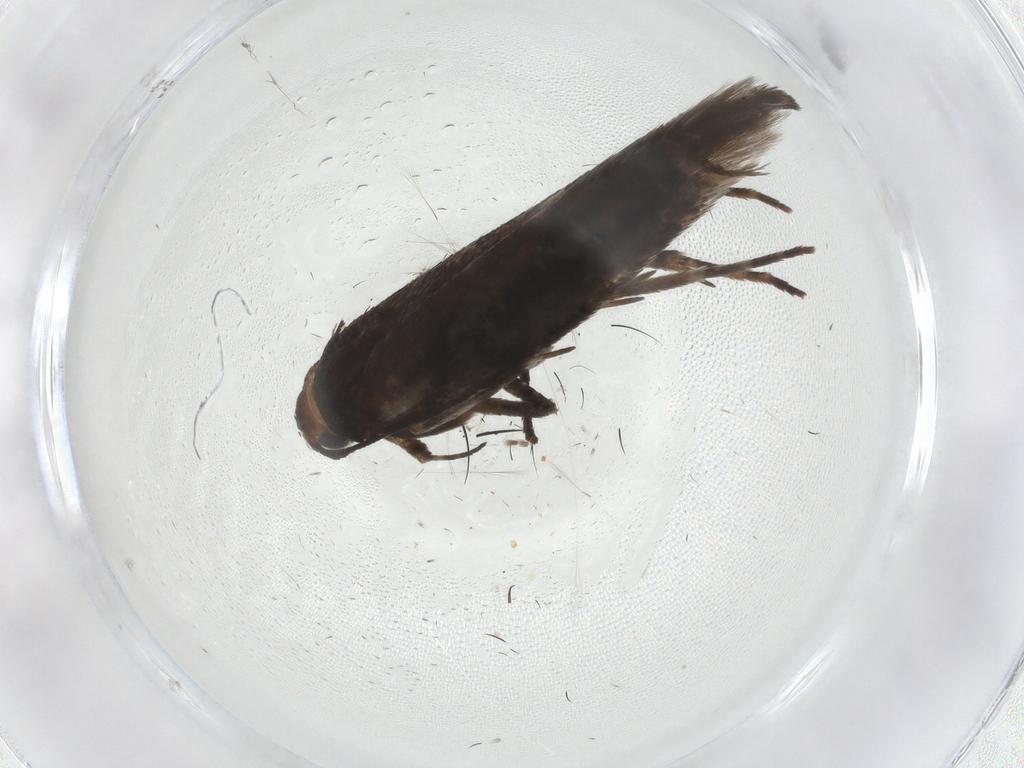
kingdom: Animalia
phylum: Arthropoda
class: Insecta
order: Lepidoptera
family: Gelechiidae
